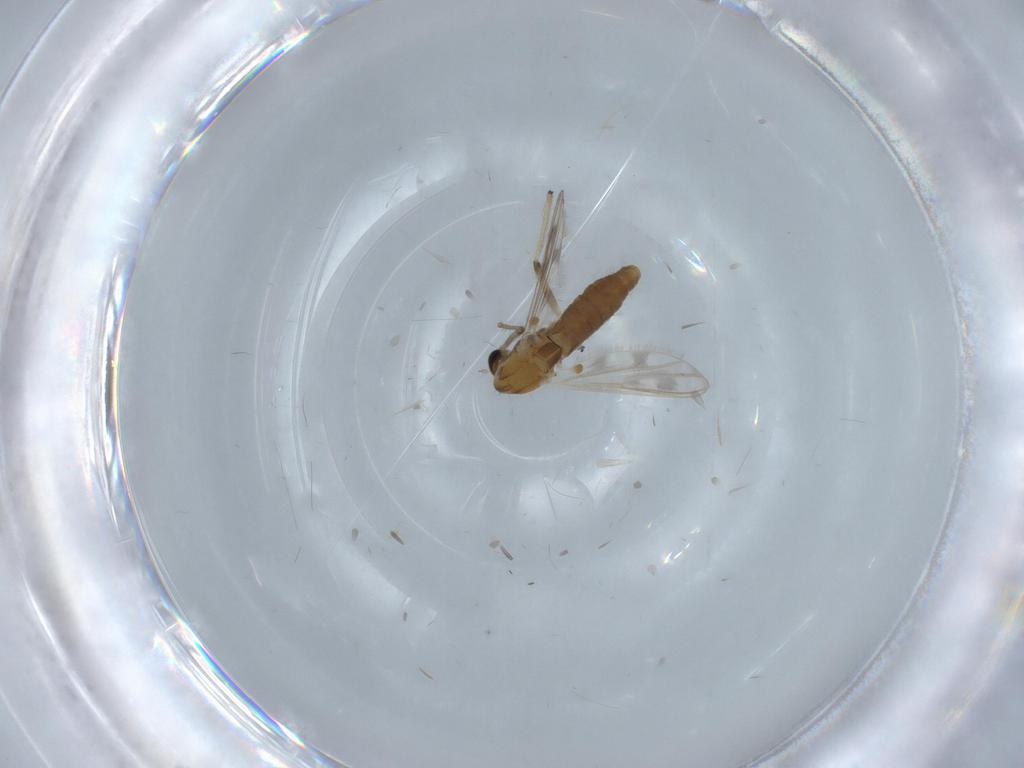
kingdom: Animalia
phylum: Arthropoda
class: Insecta
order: Diptera
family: Chironomidae
